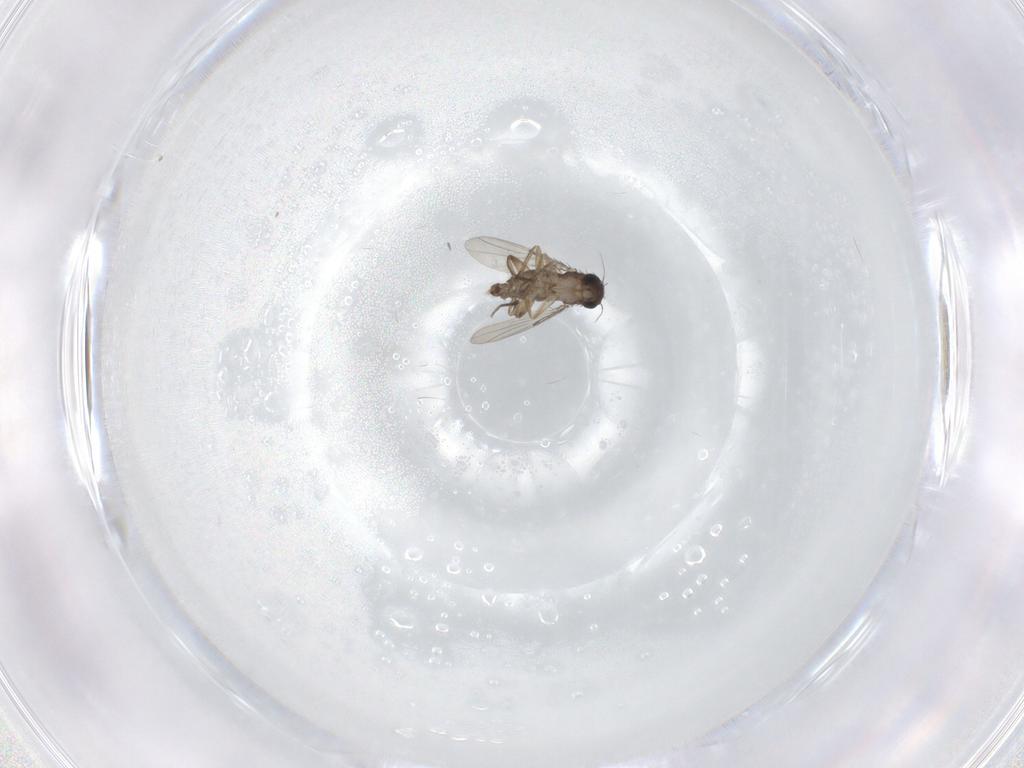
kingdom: Animalia
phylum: Arthropoda
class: Insecta
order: Diptera
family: Phoridae
